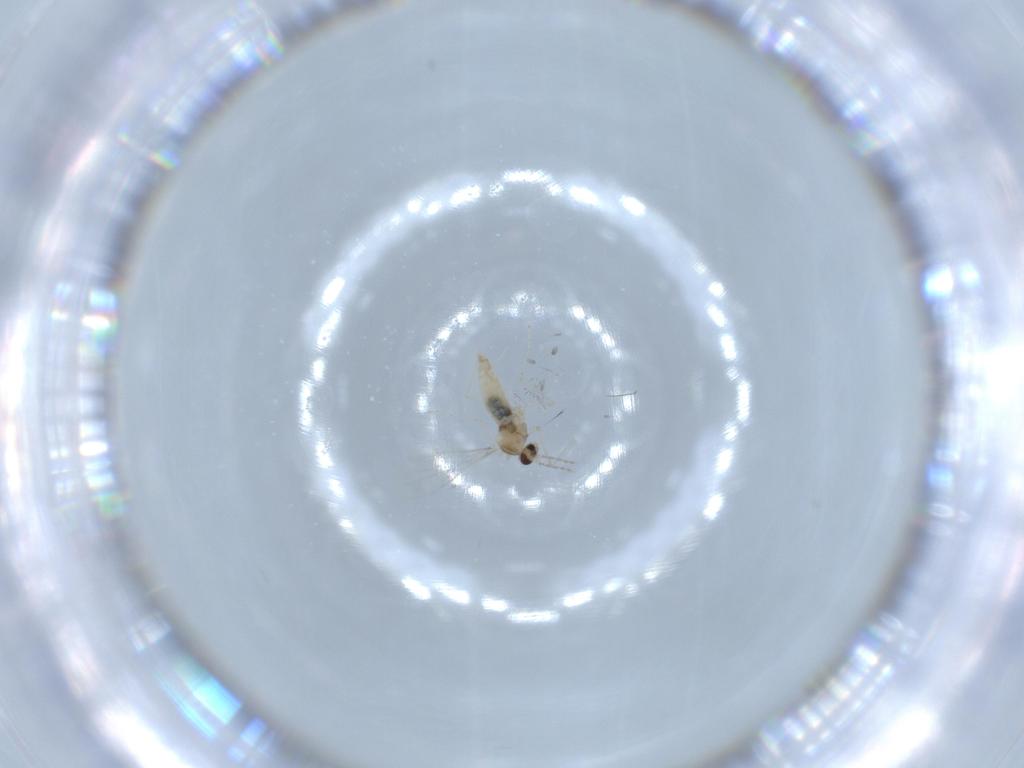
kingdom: Animalia
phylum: Arthropoda
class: Insecta
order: Diptera
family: Cecidomyiidae
